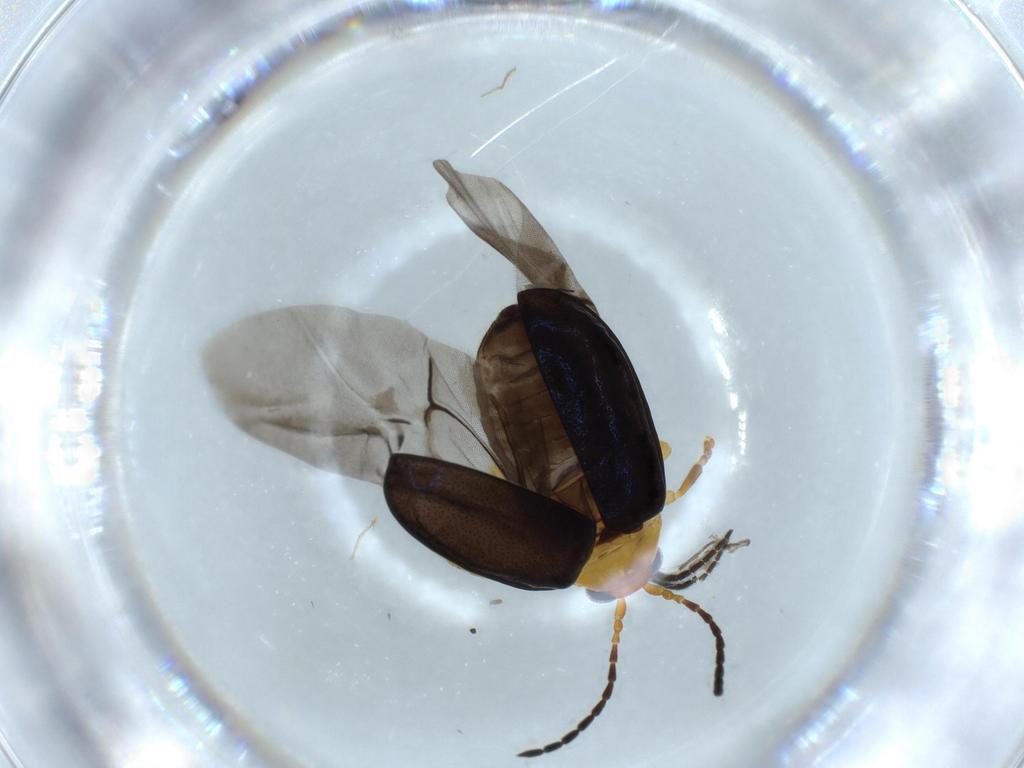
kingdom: Animalia
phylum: Arthropoda
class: Insecta
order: Coleoptera
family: Chrysomelidae
